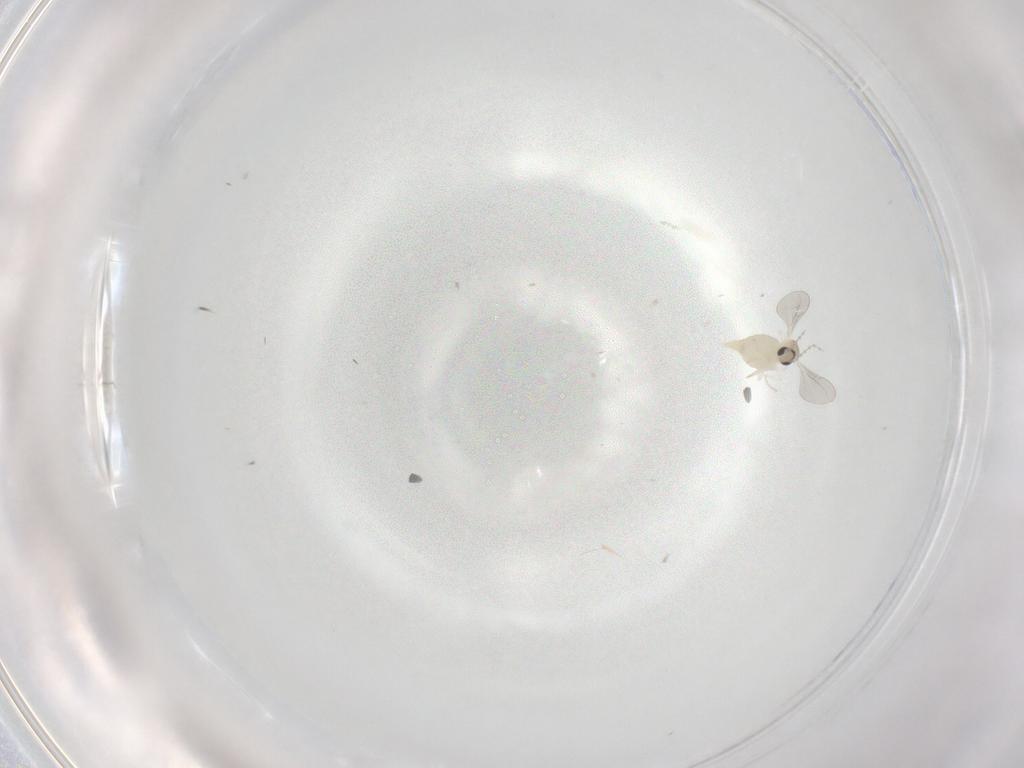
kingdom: Animalia
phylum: Arthropoda
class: Insecta
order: Diptera
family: Cecidomyiidae
